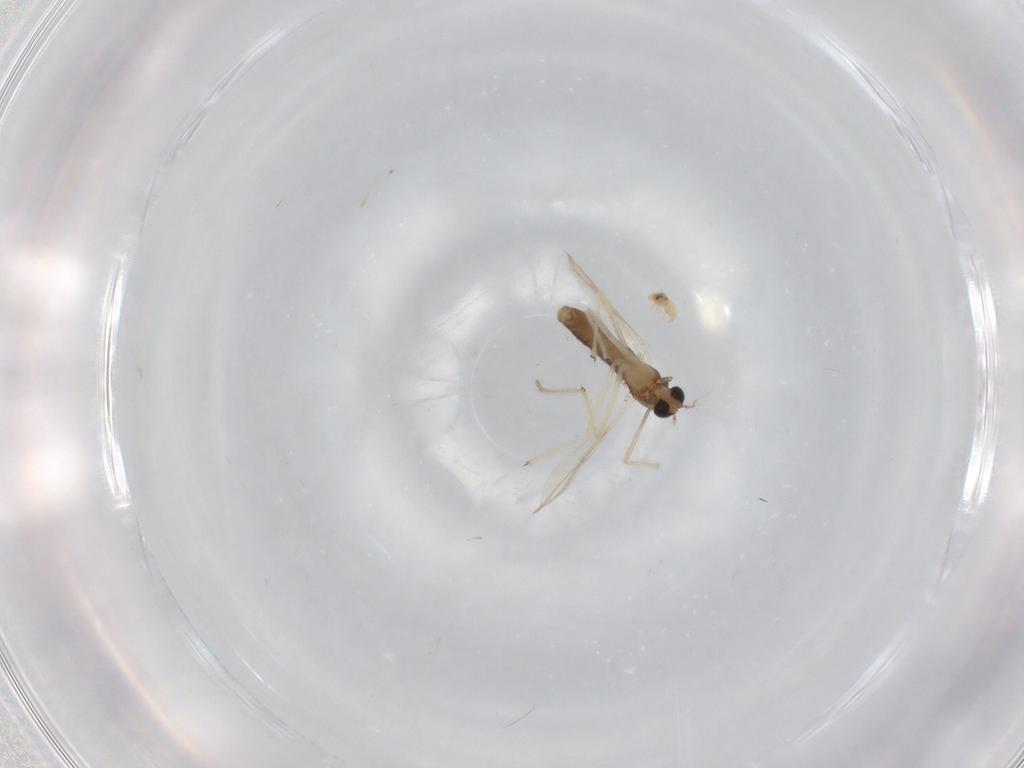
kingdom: Animalia
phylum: Arthropoda
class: Insecta
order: Diptera
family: Chironomidae
